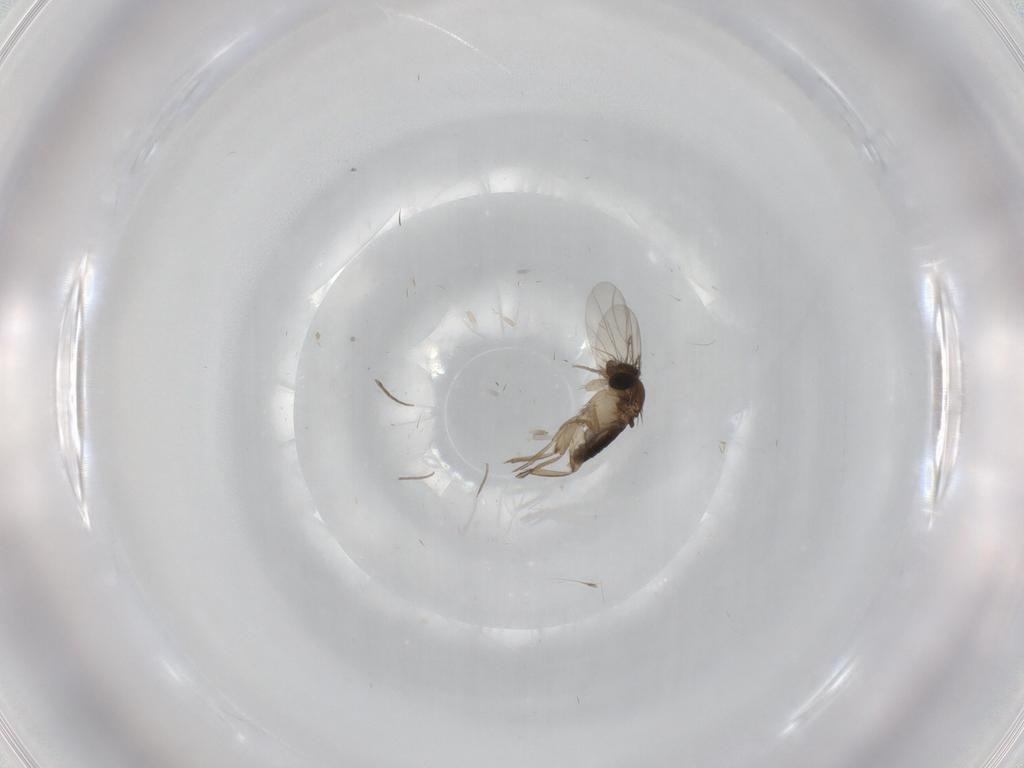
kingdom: Animalia
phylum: Arthropoda
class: Insecta
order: Diptera
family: Phoridae
